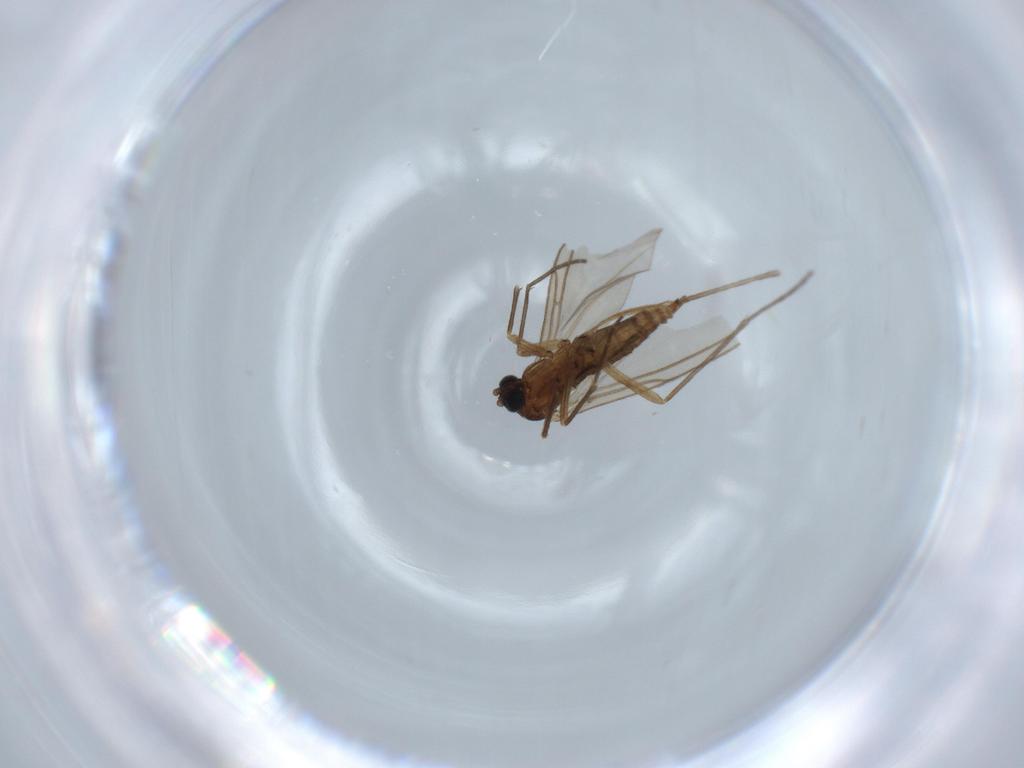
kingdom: Animalia
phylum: Arthropoda
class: Insecta
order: Diptera
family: Sciaridae
